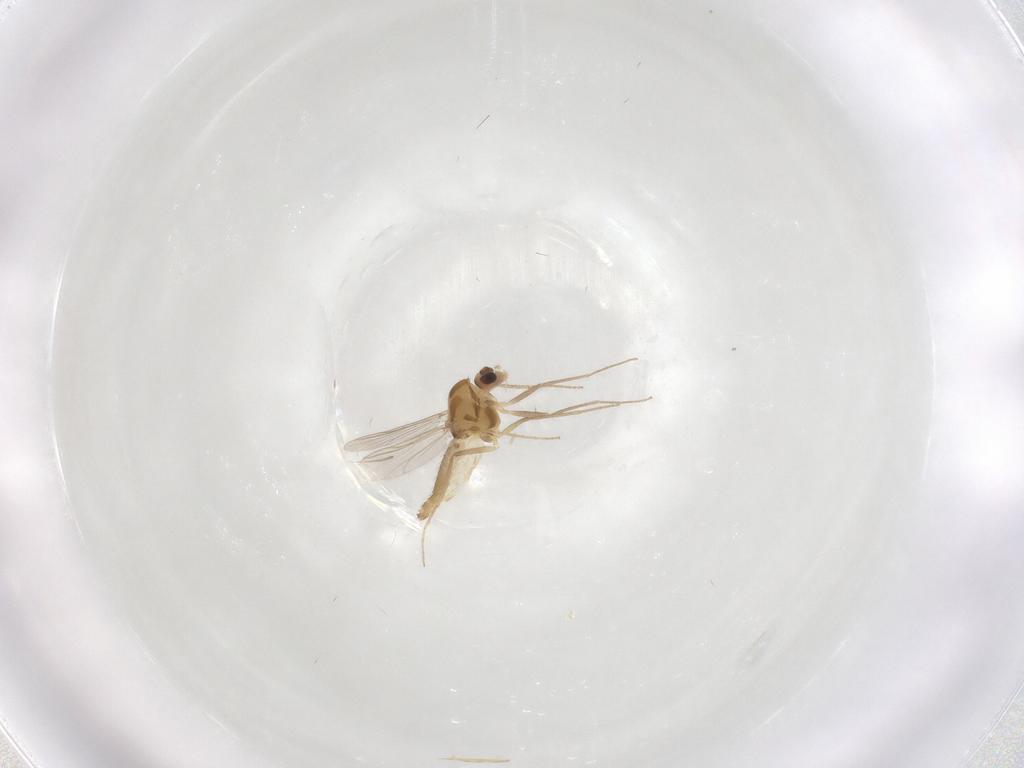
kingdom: Animalia
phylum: Arthropoda
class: Insecta
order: Diptera
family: Chironomidae
